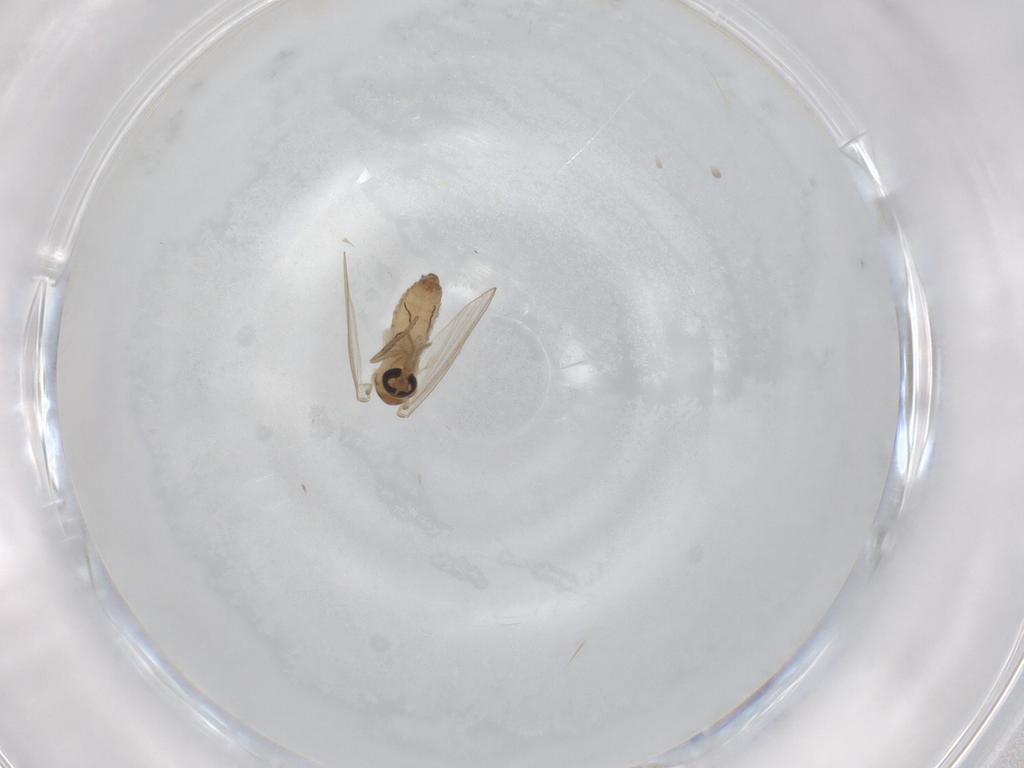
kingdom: Animalia
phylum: Arthropoda
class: Insecta
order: Diptera
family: Psychodidae
